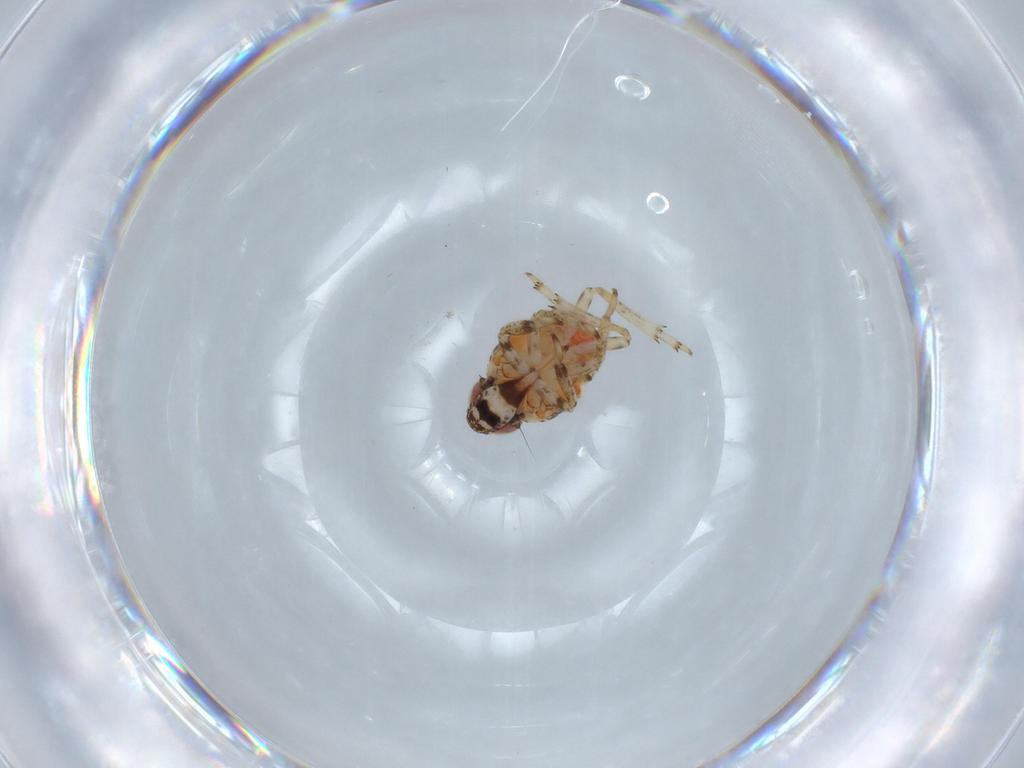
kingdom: Animalia
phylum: Arthropoda
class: Insecta
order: Hemiptera
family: Issidae
